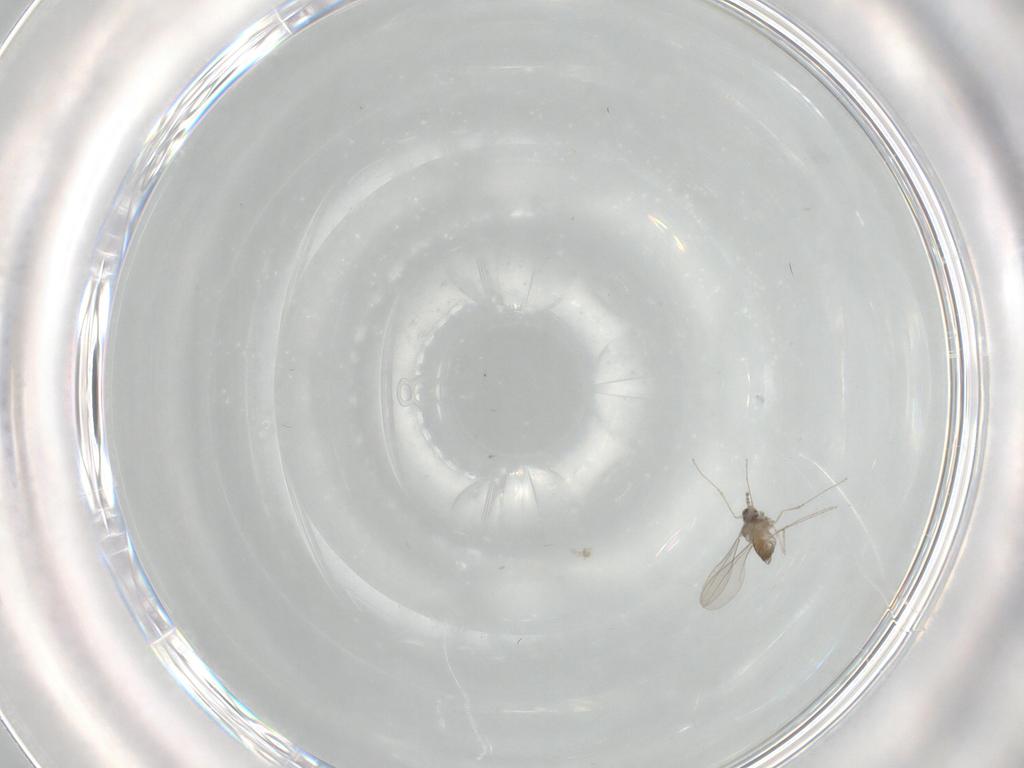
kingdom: Animalia
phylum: Arthropoda
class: Insecta
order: Diptera
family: Cecidomyiidae
